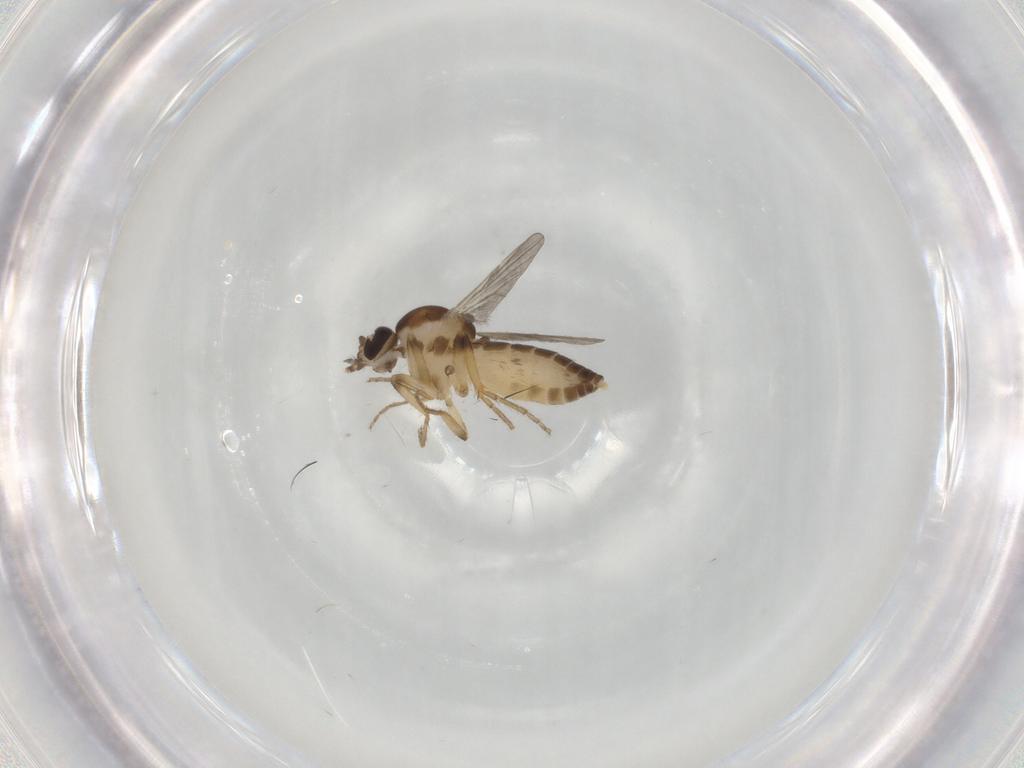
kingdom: Animalia
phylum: Arthropoda
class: Insecta
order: Diptera
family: Ceratopogonidae
